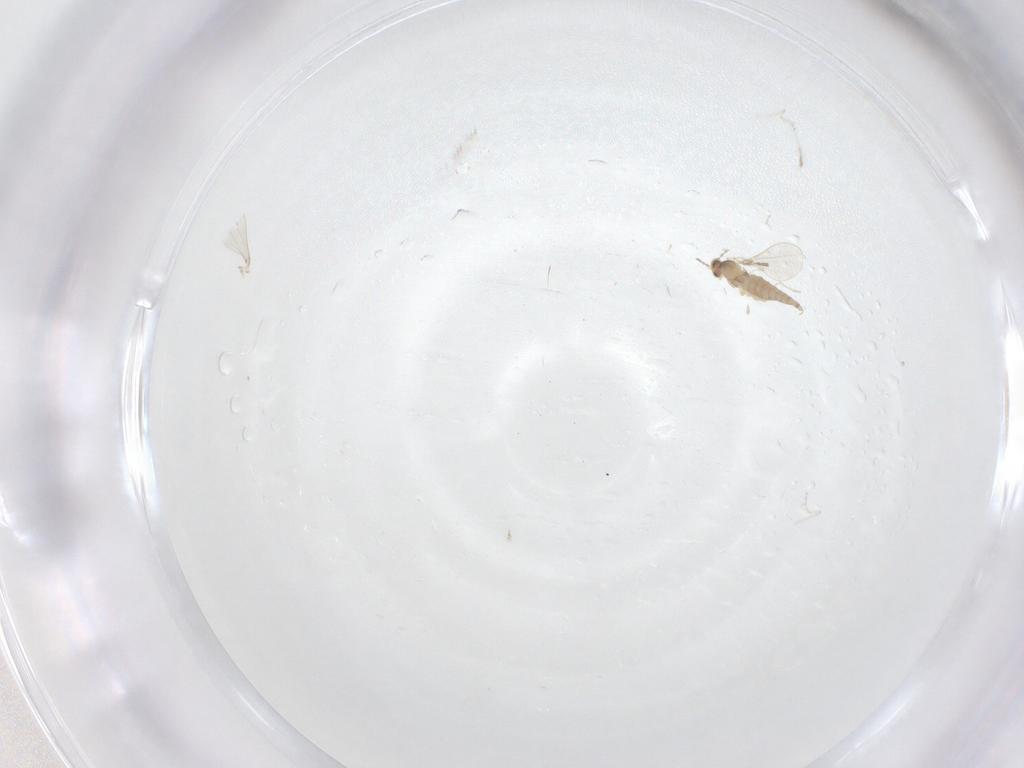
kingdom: Animalia
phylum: Arthropoda
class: Insecta
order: Diptera
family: Cecidomyiidae
